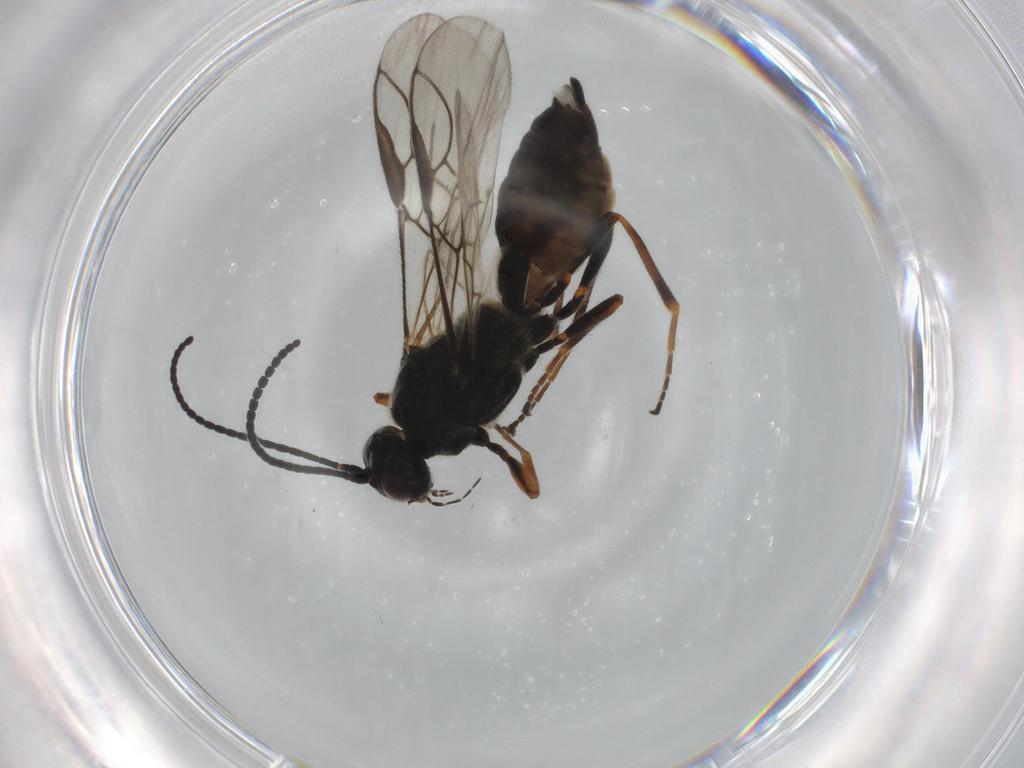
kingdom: Animalia
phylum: Arthropoda
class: Insecta
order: Hymenoptera
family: Braconidae
